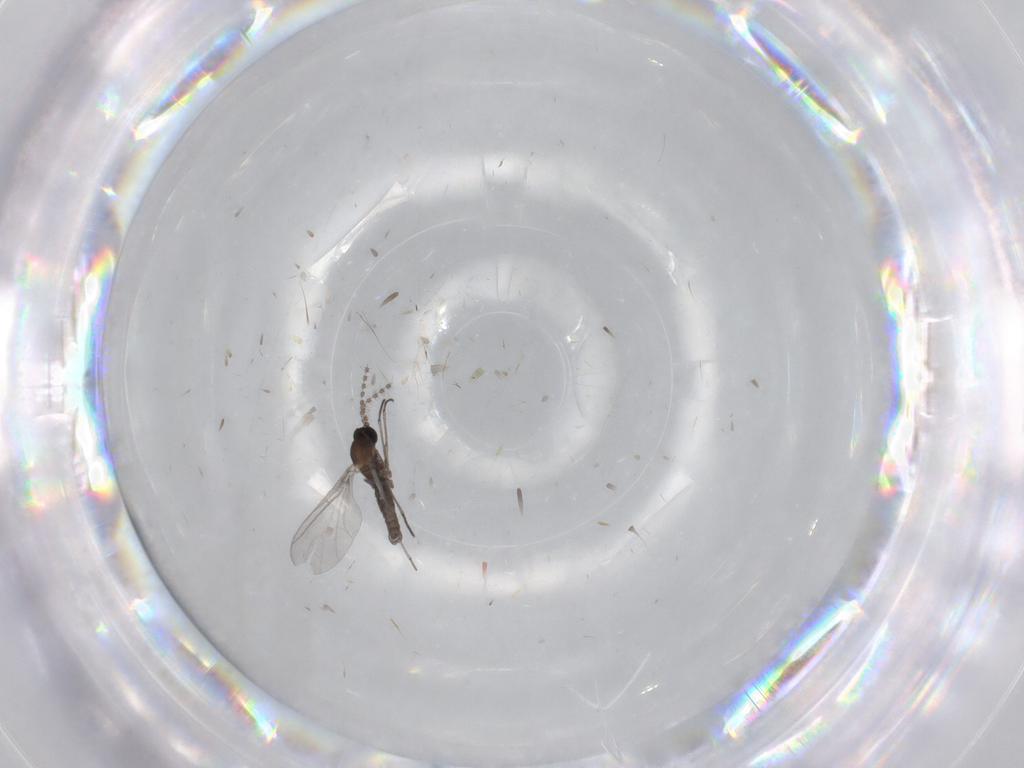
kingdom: Animalia
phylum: Arthropoda
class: Insecta
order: Diptera
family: Sciaridae
